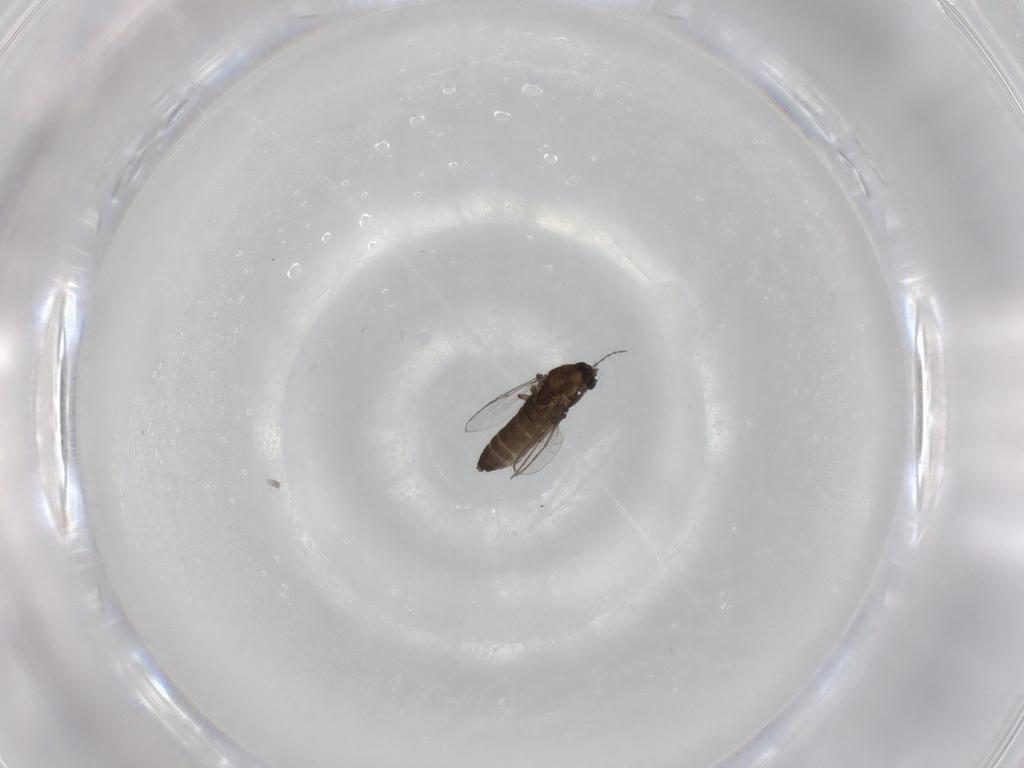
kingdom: Animalia
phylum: Arthropoda
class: Insecta
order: Diptera
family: Chironomidae
